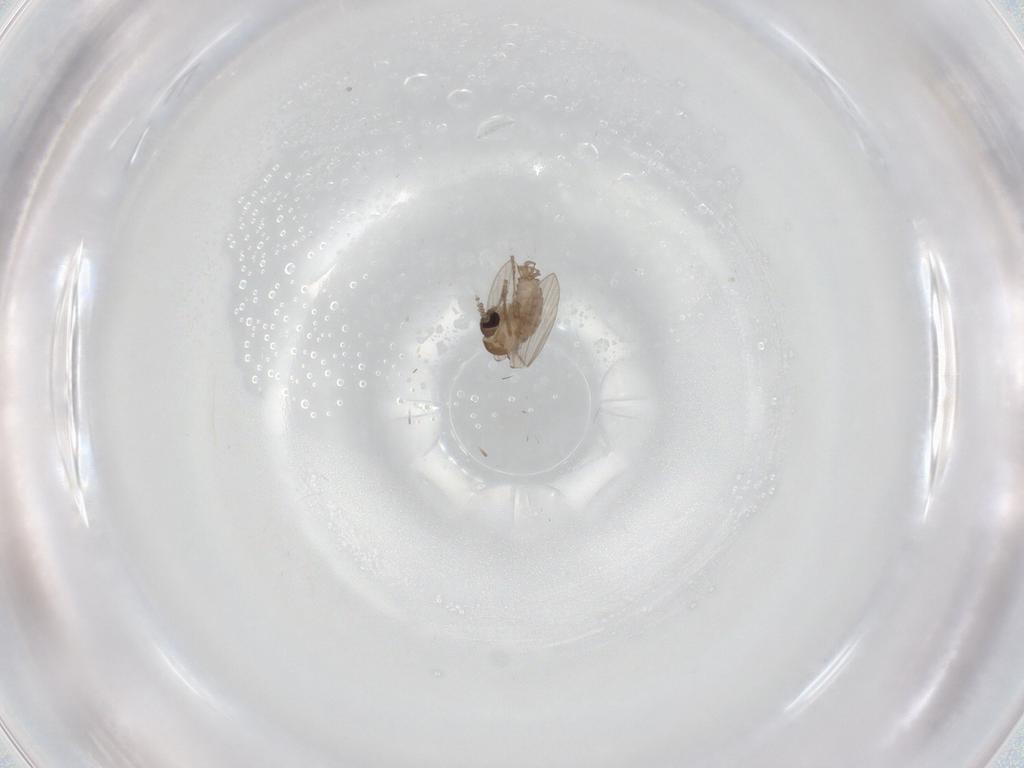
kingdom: Animalia
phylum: Arthropoda
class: Insecta
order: Diptera
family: Psychodidae
